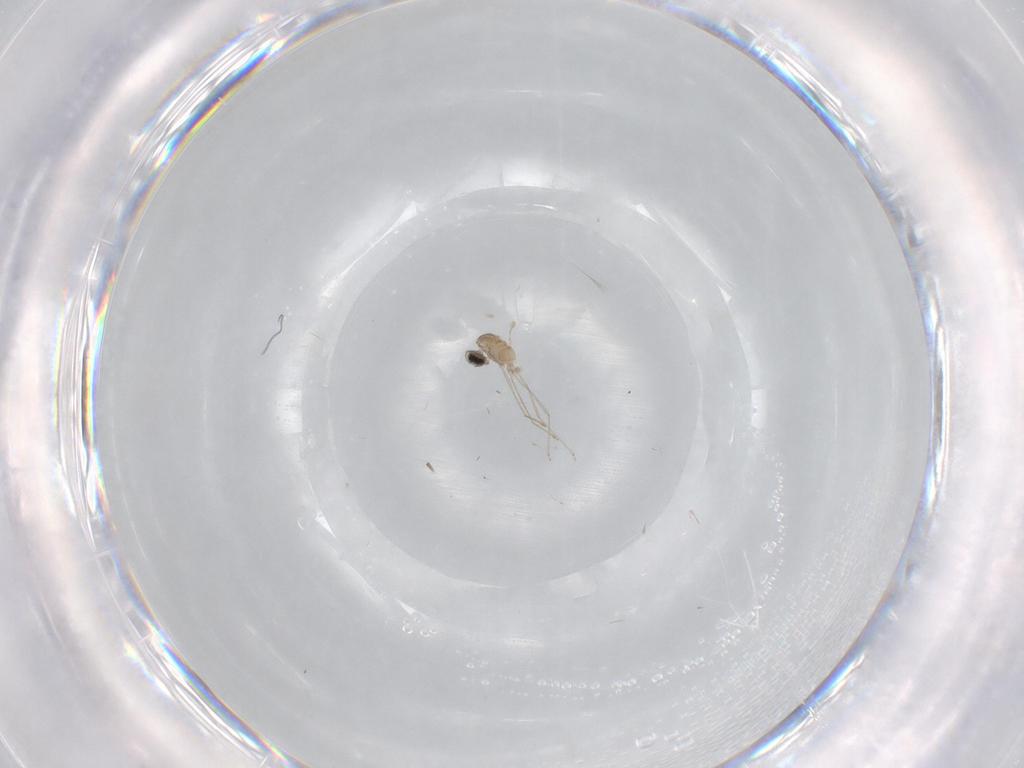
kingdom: Animalia
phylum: Arthropoda
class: Insecta
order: Diptera
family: Cecidomyiidae
